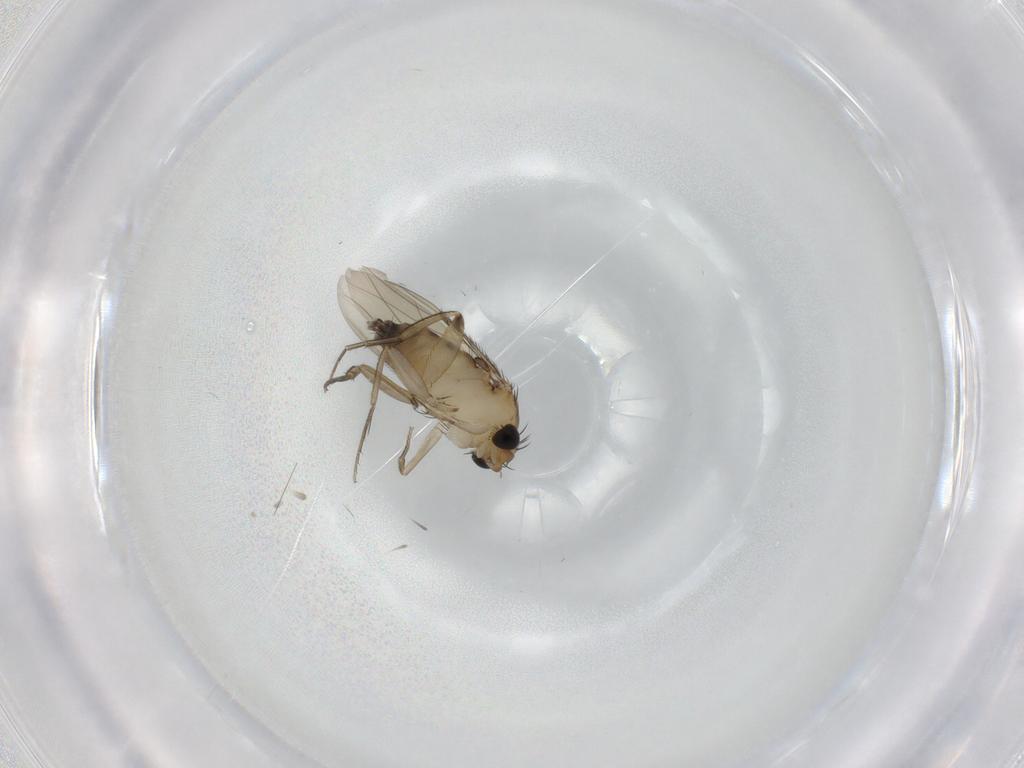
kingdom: Animalia
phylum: Arthropoda
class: Insecta
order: Diptera
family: Phoridae
